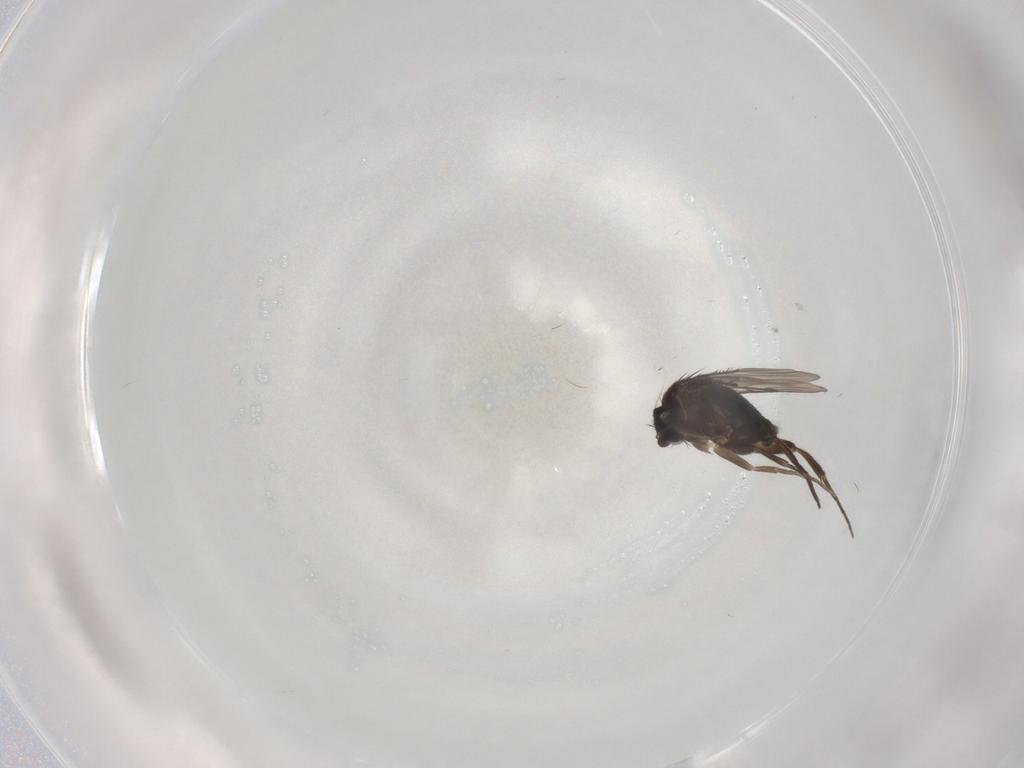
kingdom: Animalia
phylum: Arthropoda
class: Insecta
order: Diptera
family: Phoridae
